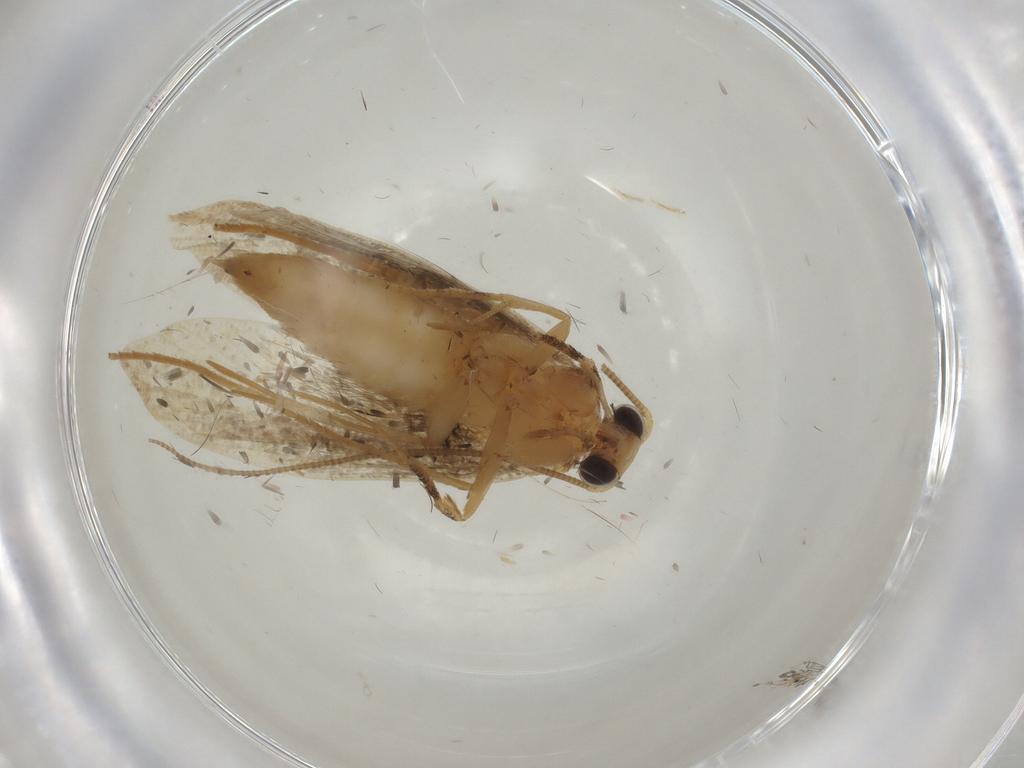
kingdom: Animalia
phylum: Arthropoda
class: Insecta
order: Lepidoptera
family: Tineidae
